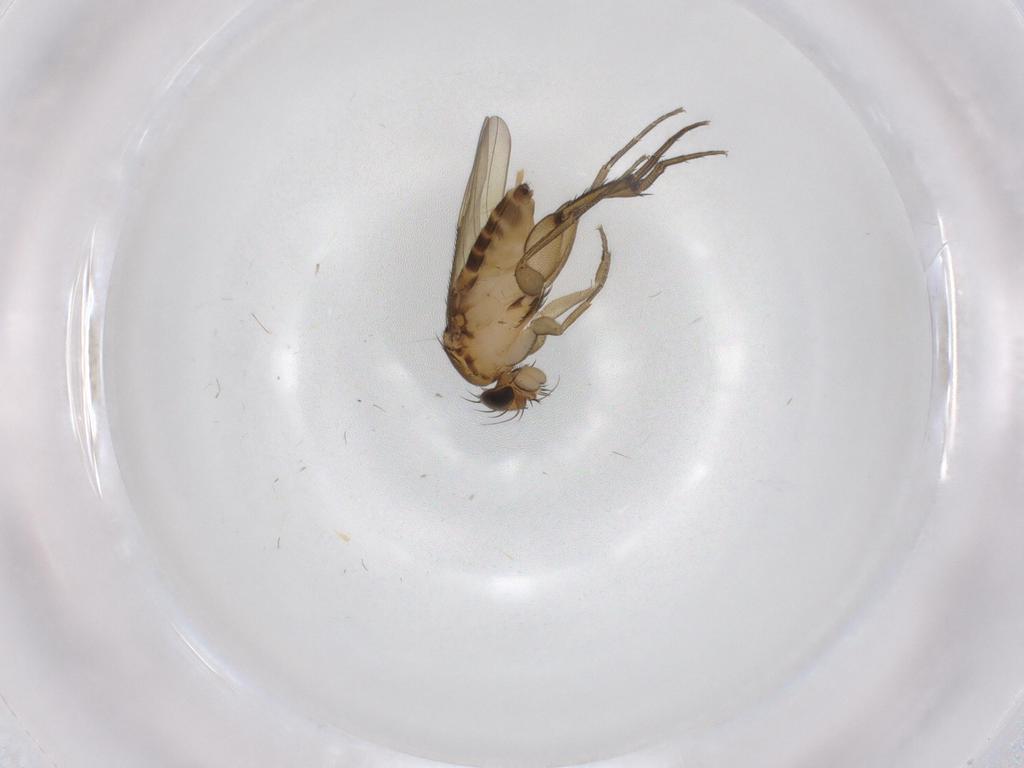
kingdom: Animalia
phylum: Arthropoda
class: Insecta
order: Diptera
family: Phoridae
